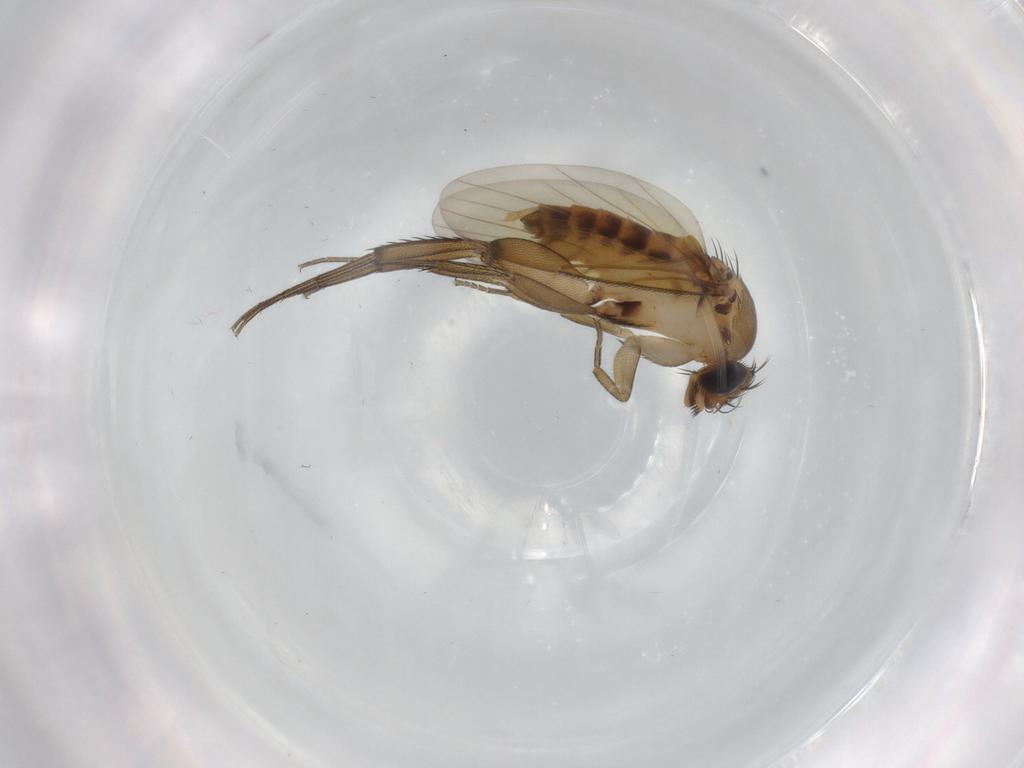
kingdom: Animalia
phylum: Arthropoda
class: Insecta
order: Diptera
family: Phoridae
